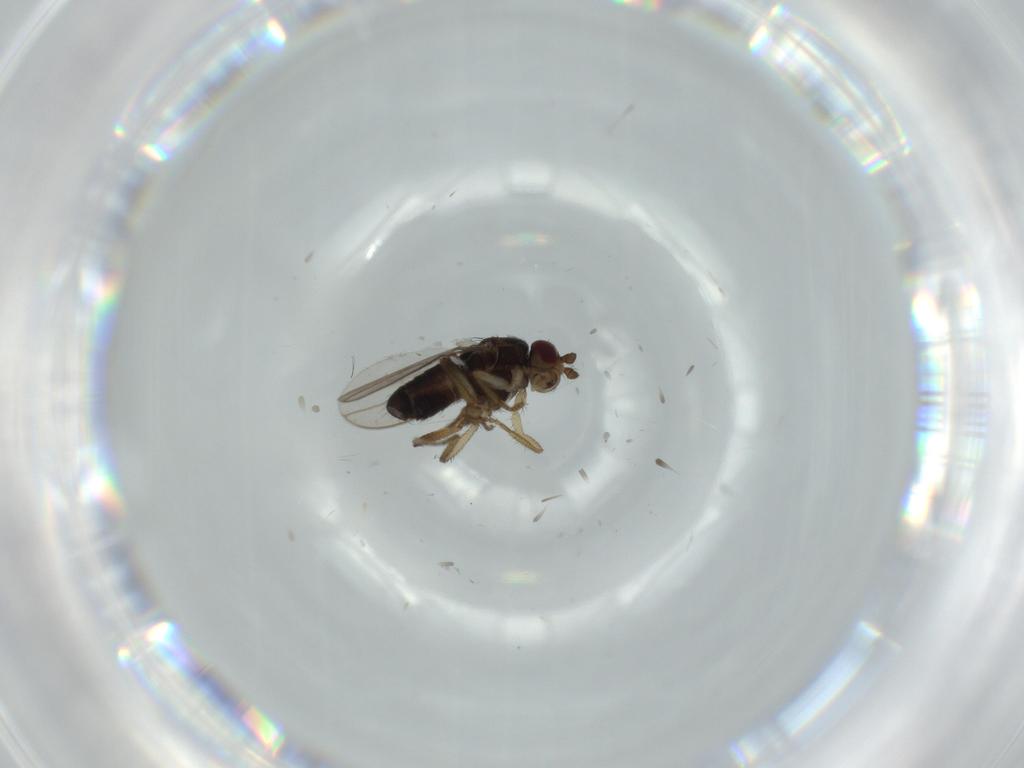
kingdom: Animalia
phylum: Arthropoda
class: Insecta
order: Diptera
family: Phoridae
